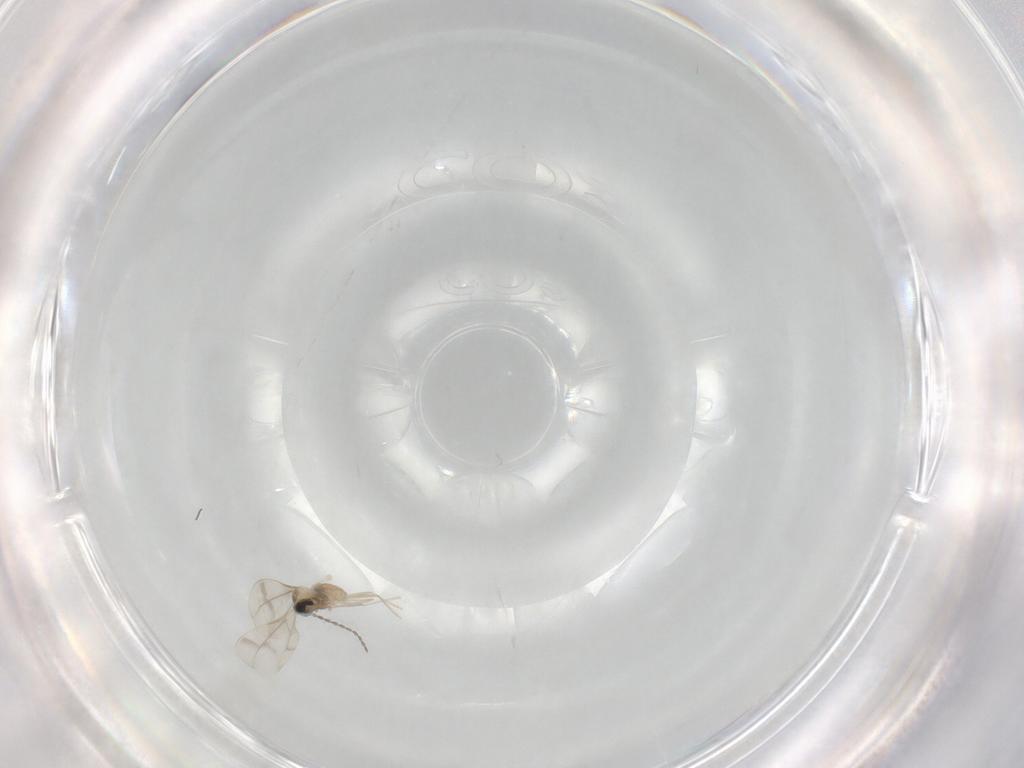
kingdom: Animalia
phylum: Arthropoda
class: Insecta
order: Diptera
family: Cecidomyiidae
